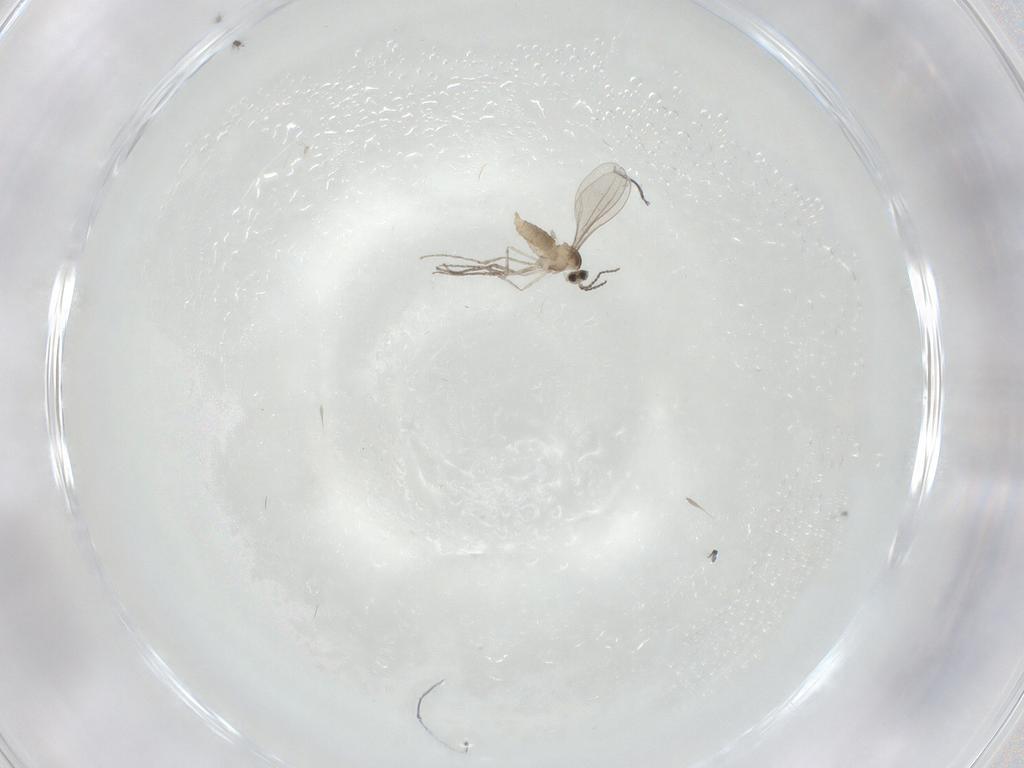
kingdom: Animalia
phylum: Arthropoda
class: Insecta
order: Diptera
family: Cecidomyiidae
